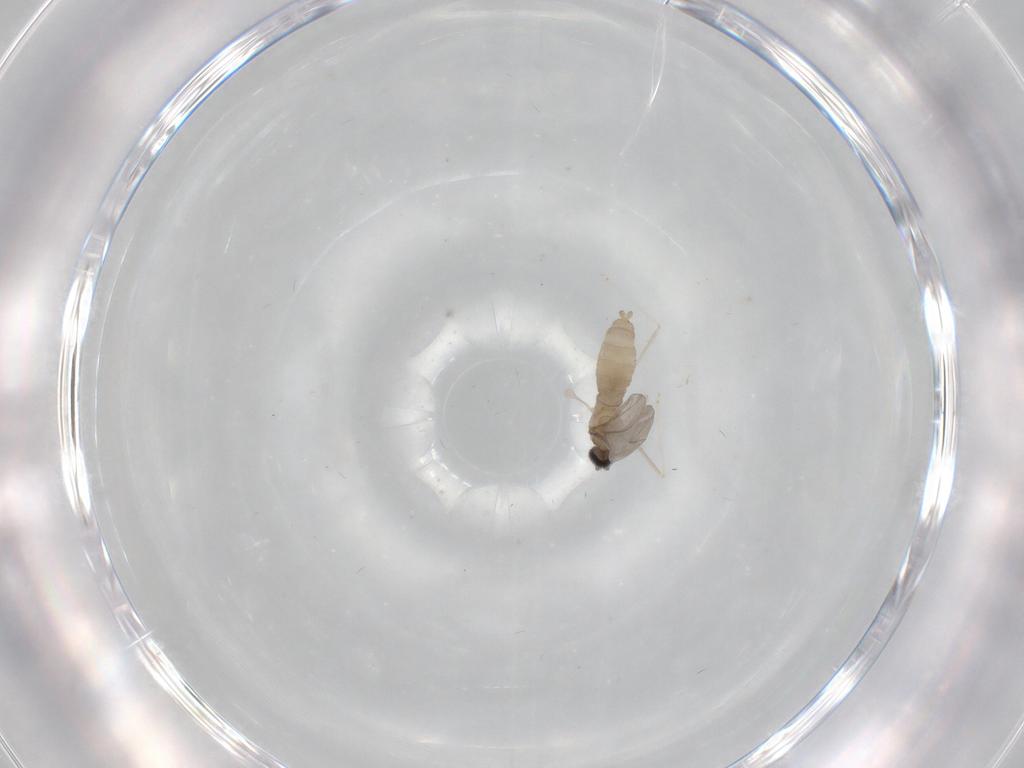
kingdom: Animalia
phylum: Arthropoda
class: Insecta
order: Diptera
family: Cecidomyiidae
